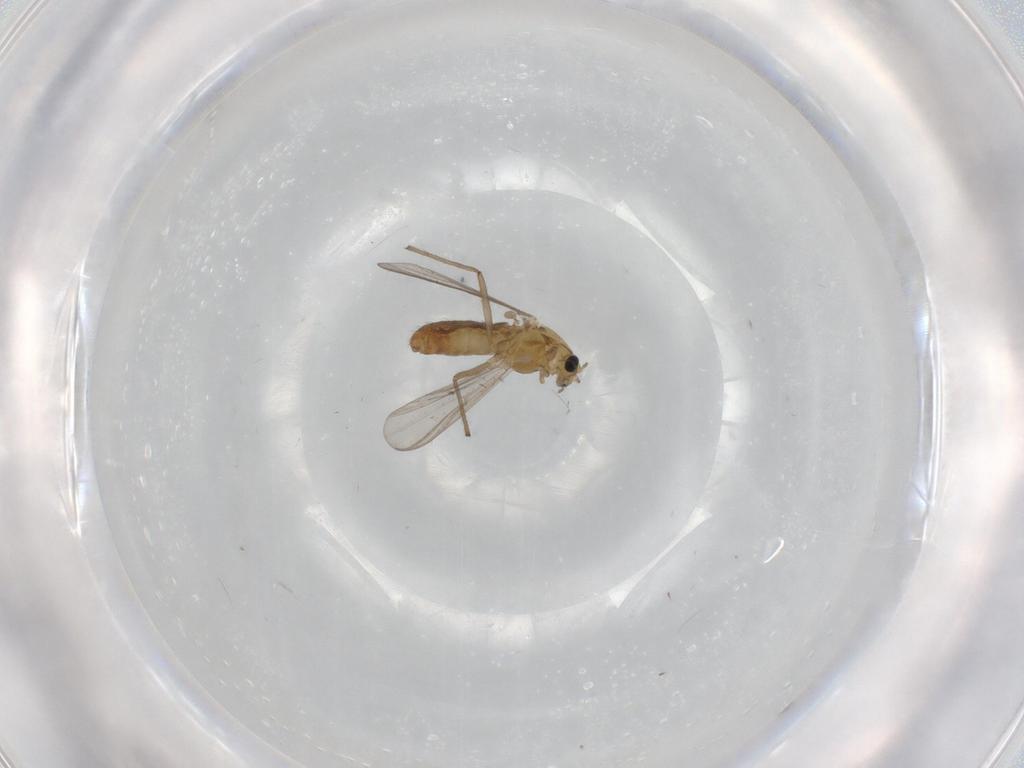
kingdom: Animalia
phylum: Arthropoda
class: Insecta
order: Diptera
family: Chironomidae
